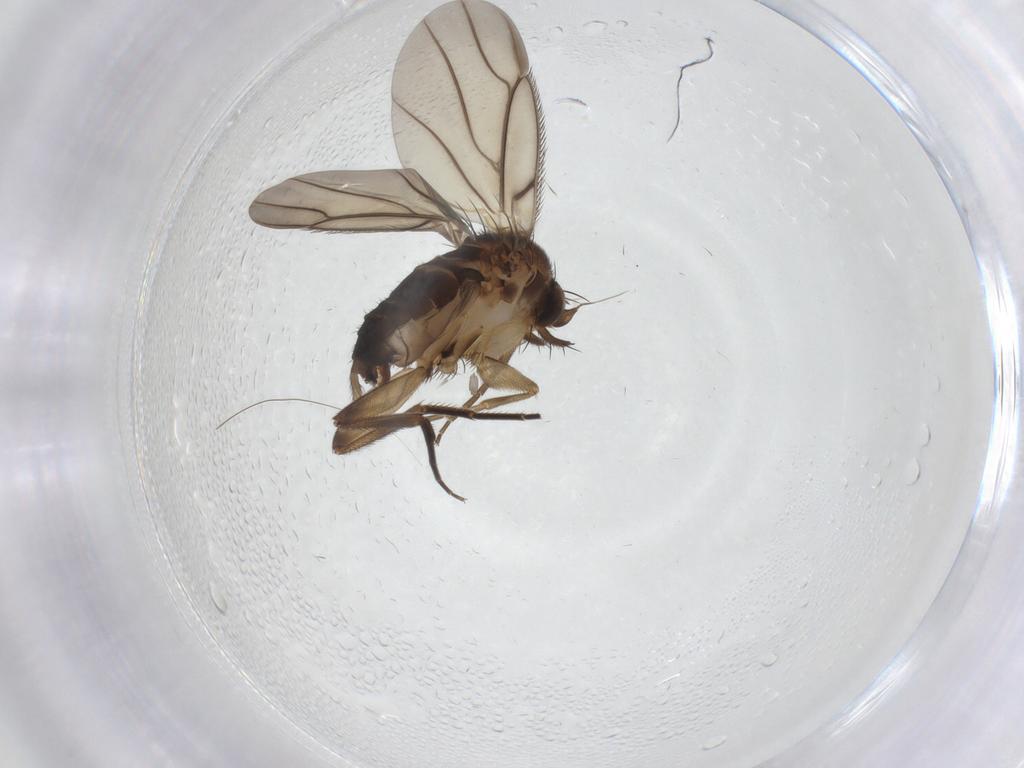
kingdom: Animalia
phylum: Arthropoda
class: Insecta
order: Diptera
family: Phoridae
